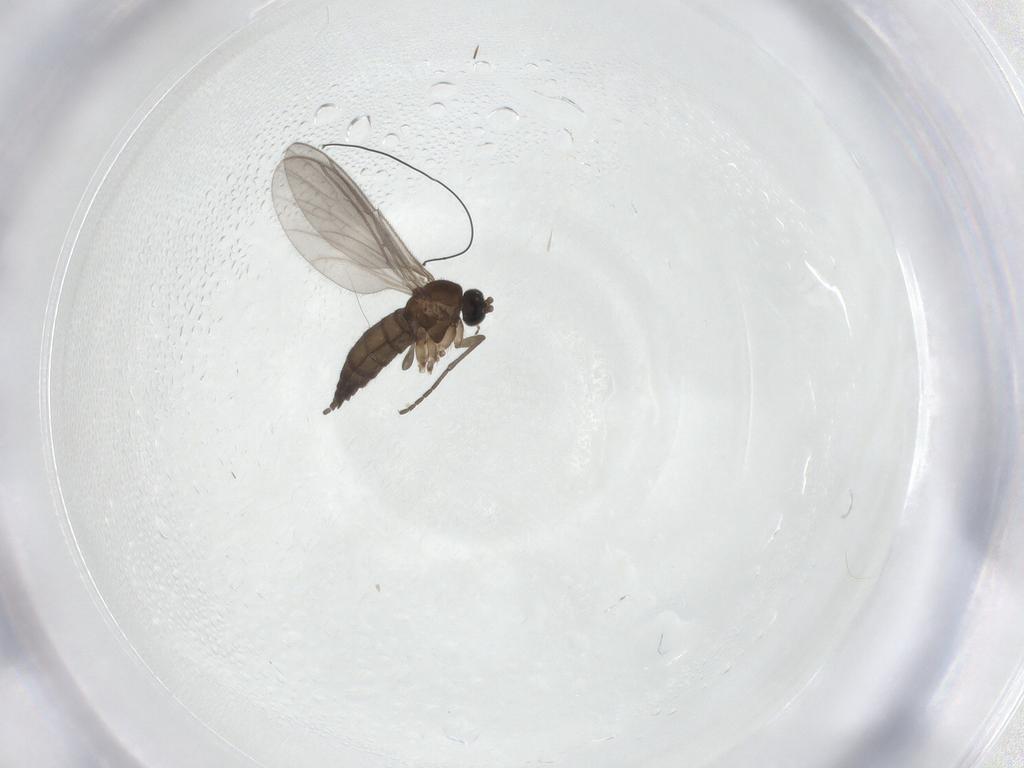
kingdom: Animalia
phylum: Arthropoda
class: Insecta
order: Diptera
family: Sciaridae
